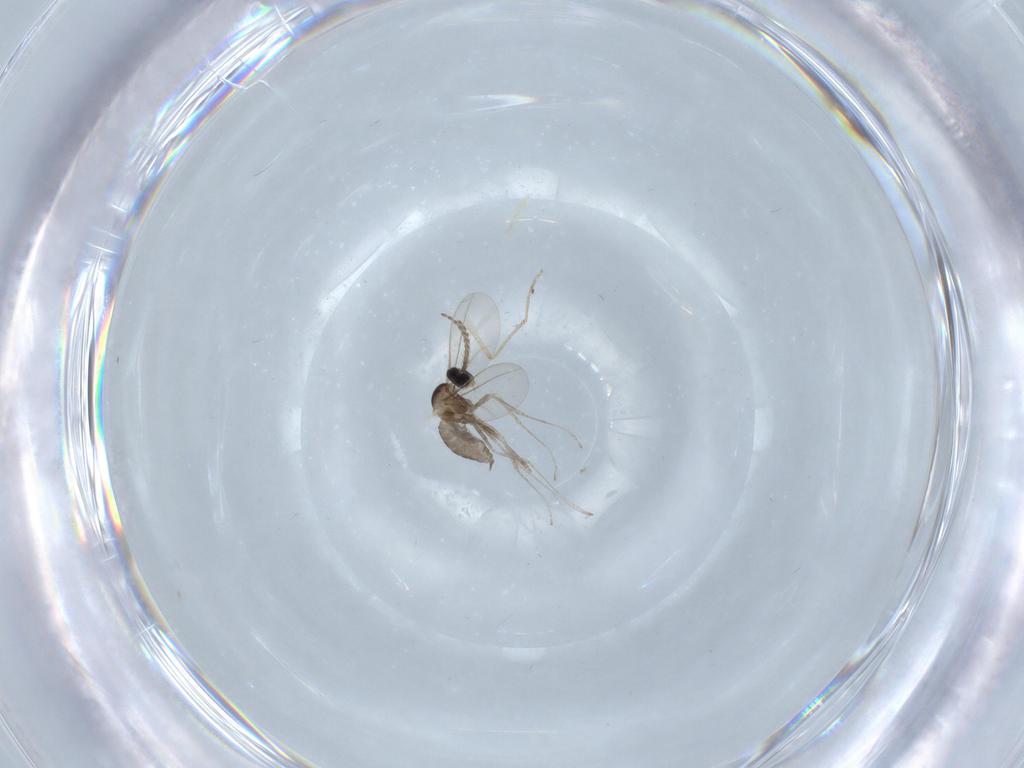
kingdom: Animalia
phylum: Arthropoda
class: Insecta
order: Diptera
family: Cecidomyiidae
